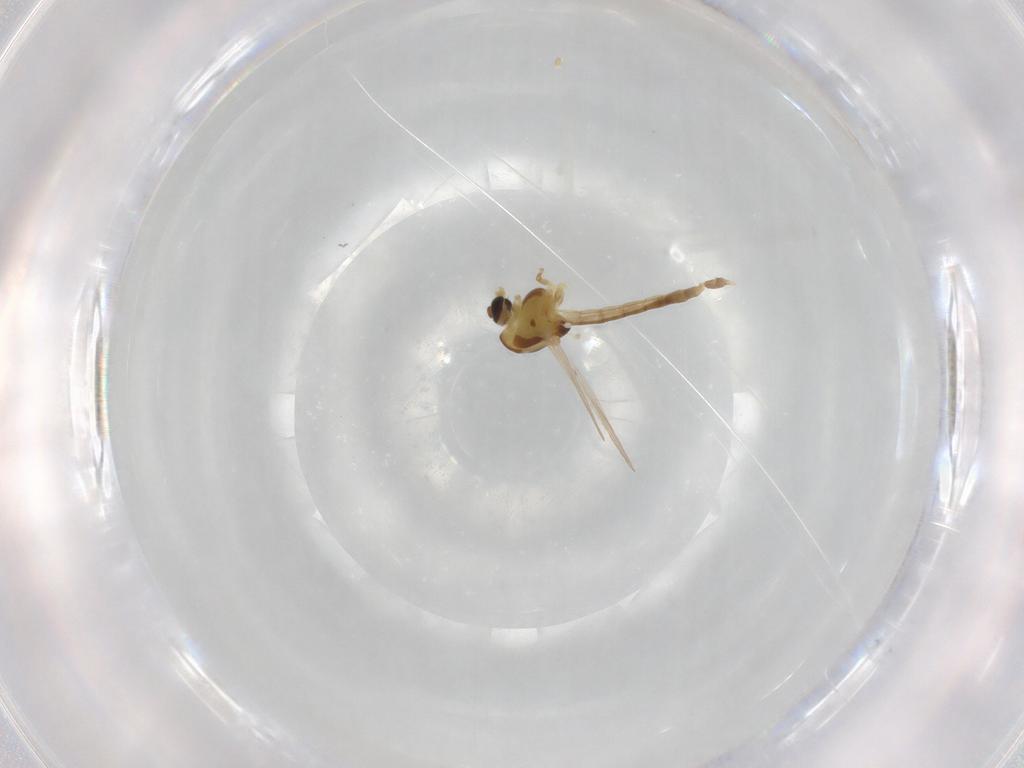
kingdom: Animalia
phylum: Arthropoda
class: Insecta
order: Diptera
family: Chironomidae
